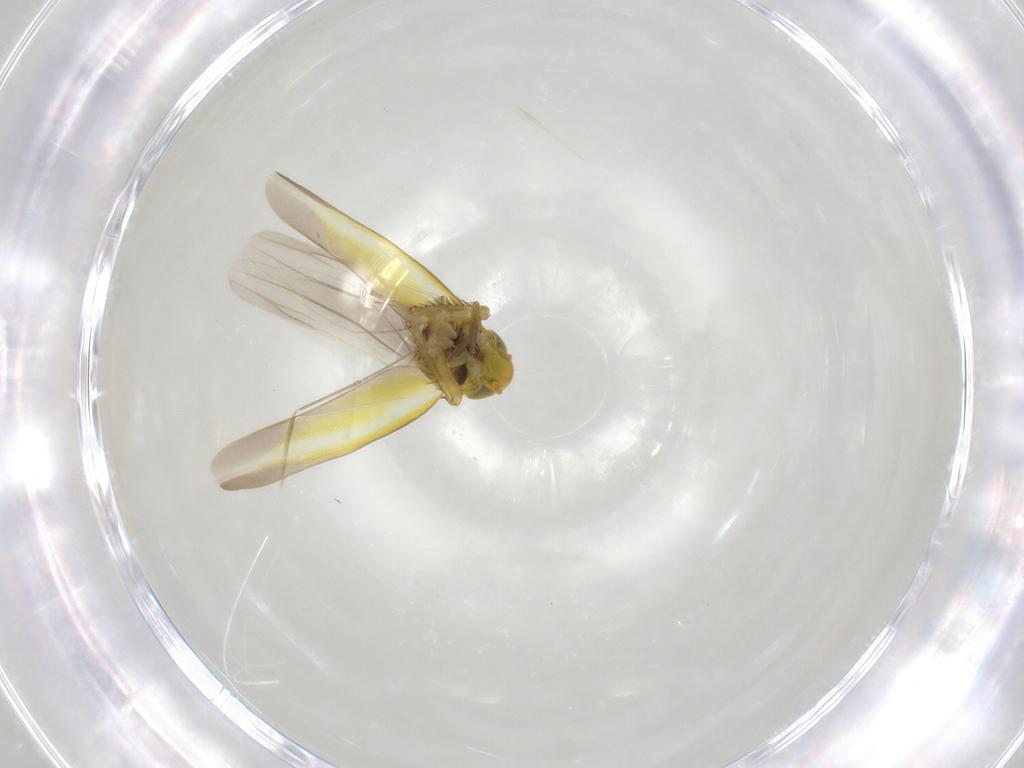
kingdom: Animalia
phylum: Arthropoda
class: Insecta
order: Hemiptera
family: Cicadellidae
